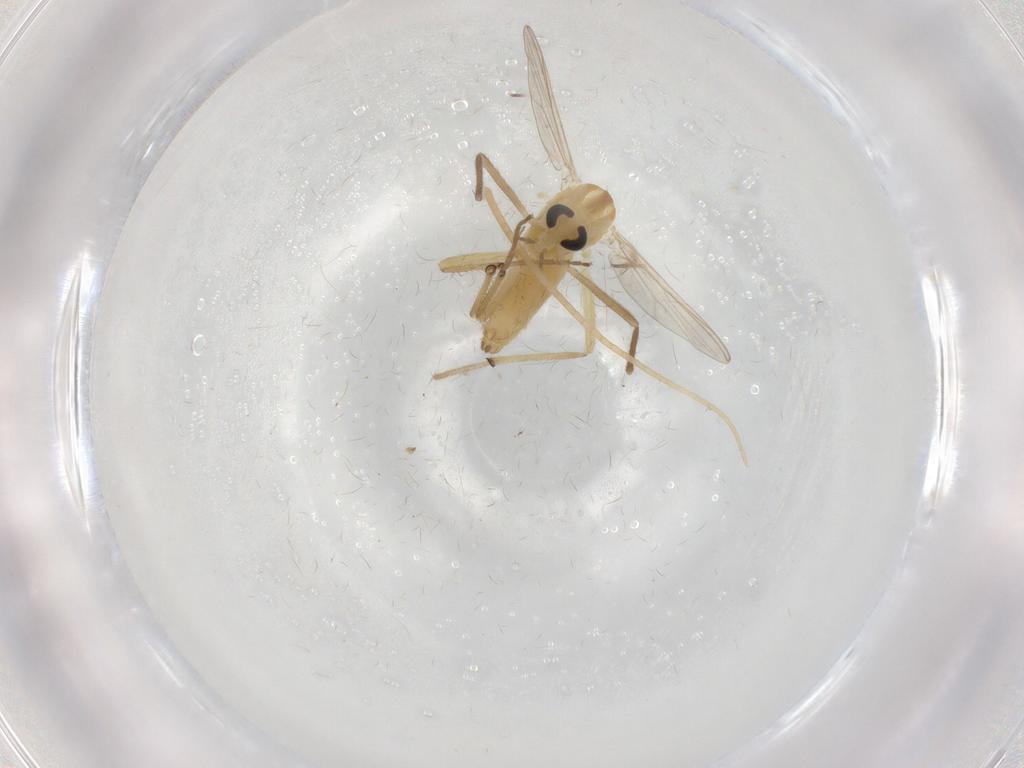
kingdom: Animalia
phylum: Arthropoda
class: Insecta
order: Diptera
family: Chironomidae
